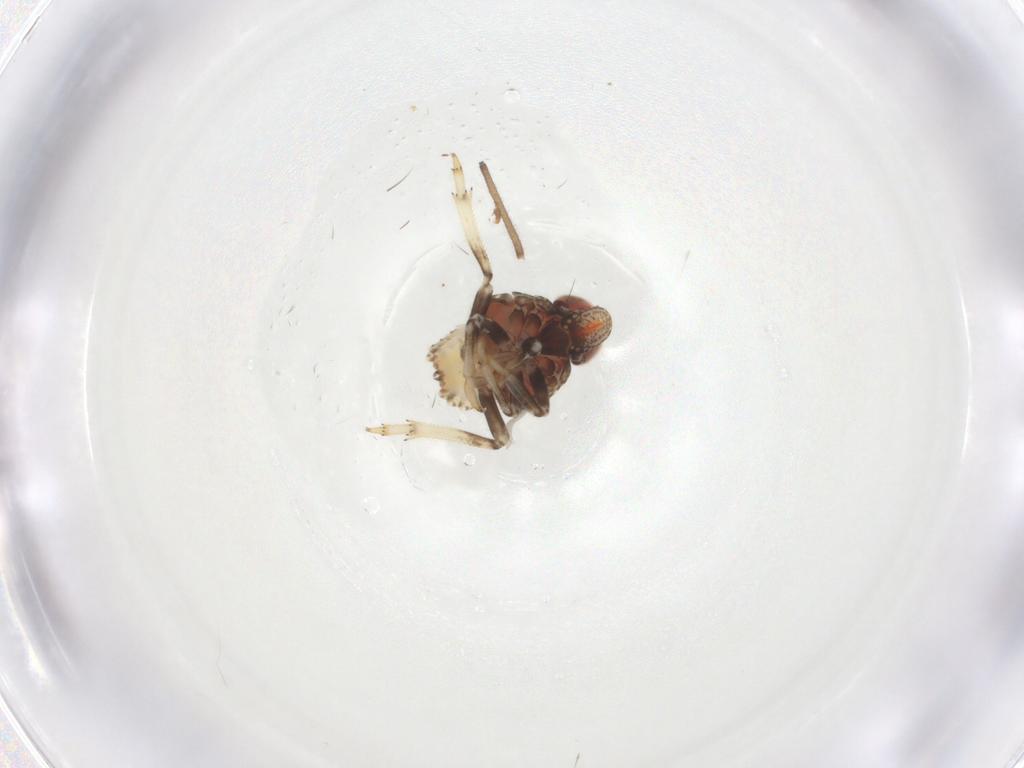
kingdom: Animalia
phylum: Arthropoda
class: Insecta
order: Hemiptera
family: Issidae
